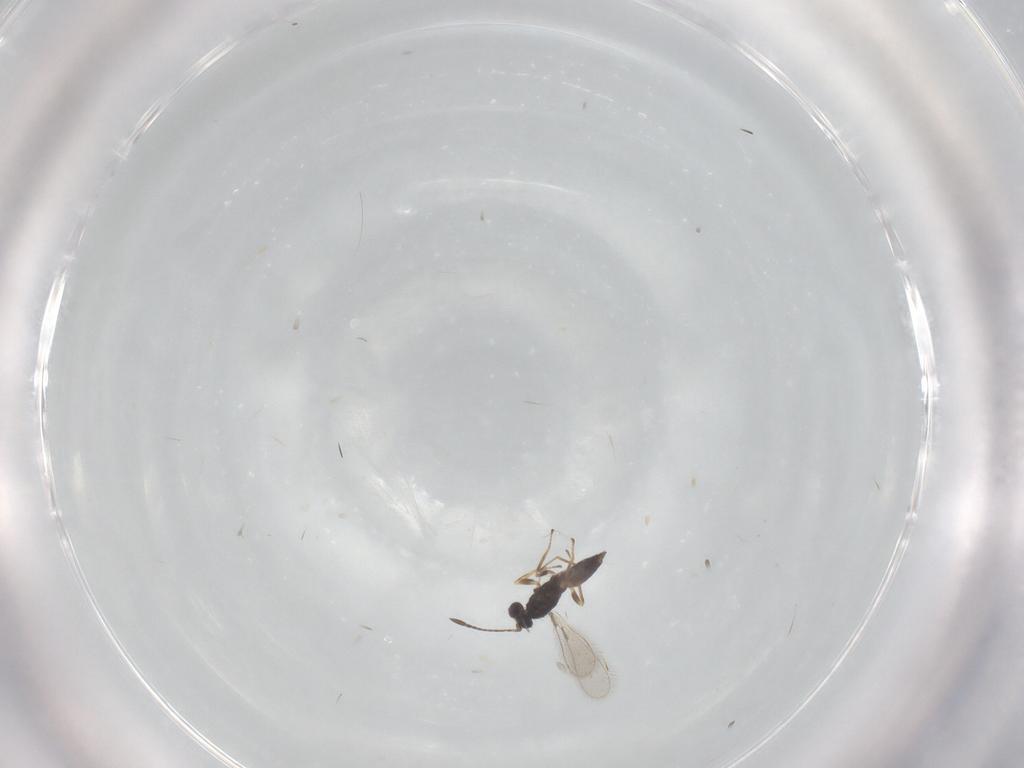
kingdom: Animalia
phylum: Arthropoda
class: Insecta
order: Hymenoptera
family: Mymaridae
